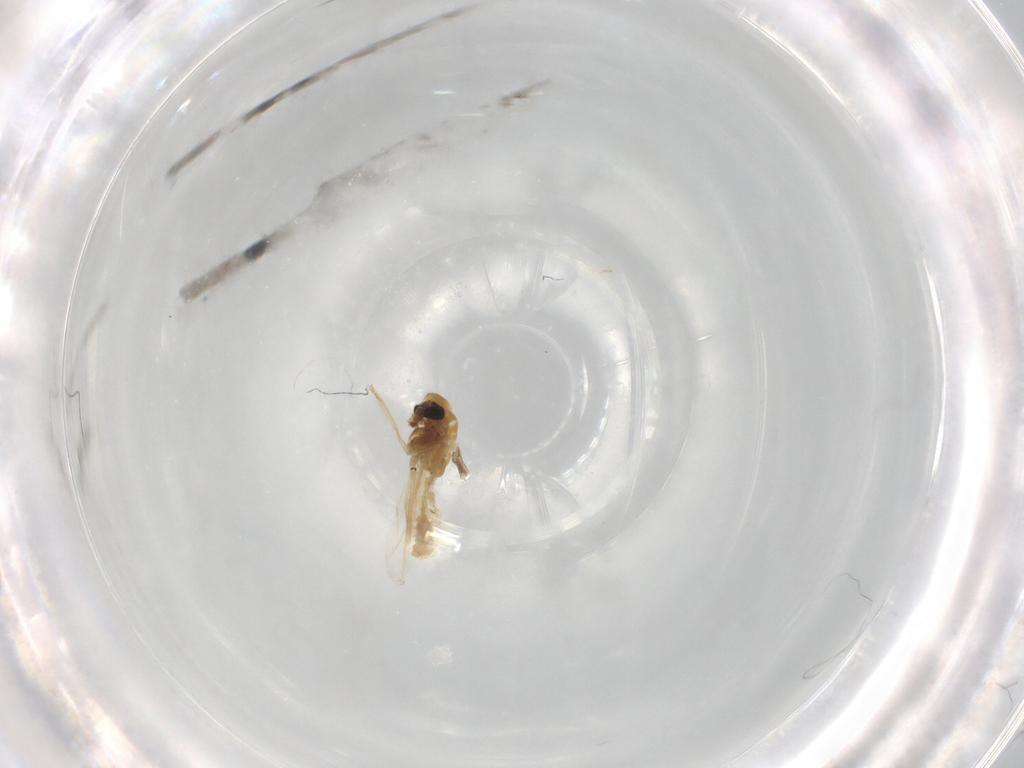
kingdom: Animalia
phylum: Arthropoda
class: Insecta
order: Diptera
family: Chironomidae
